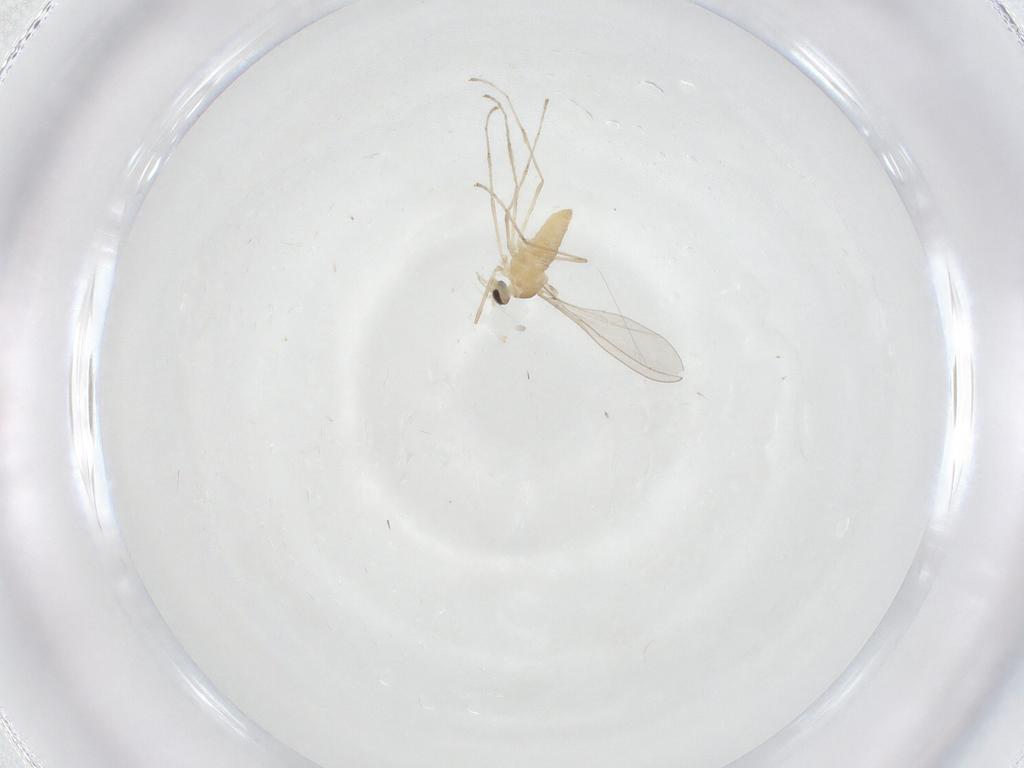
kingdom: Animalia
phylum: Arthropoda
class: Insecta
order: Diptera
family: Cecidomyiidae
